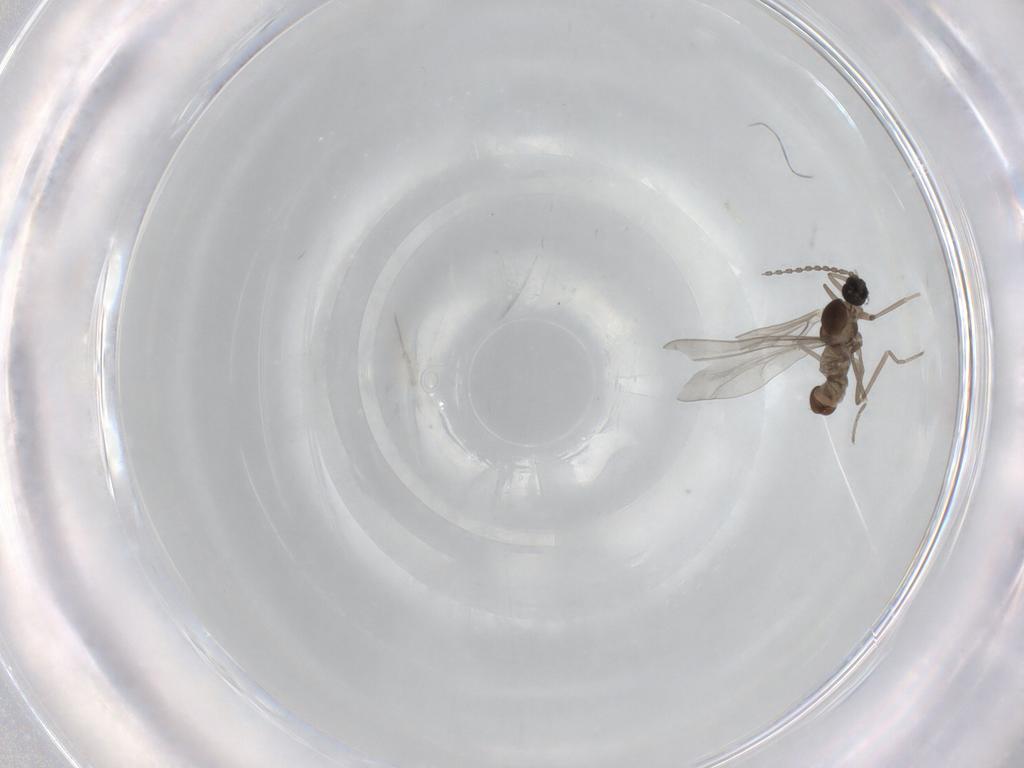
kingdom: Animalia
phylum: Arthropoda
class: Insecta
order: Diptera
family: Cecidomyiidae
